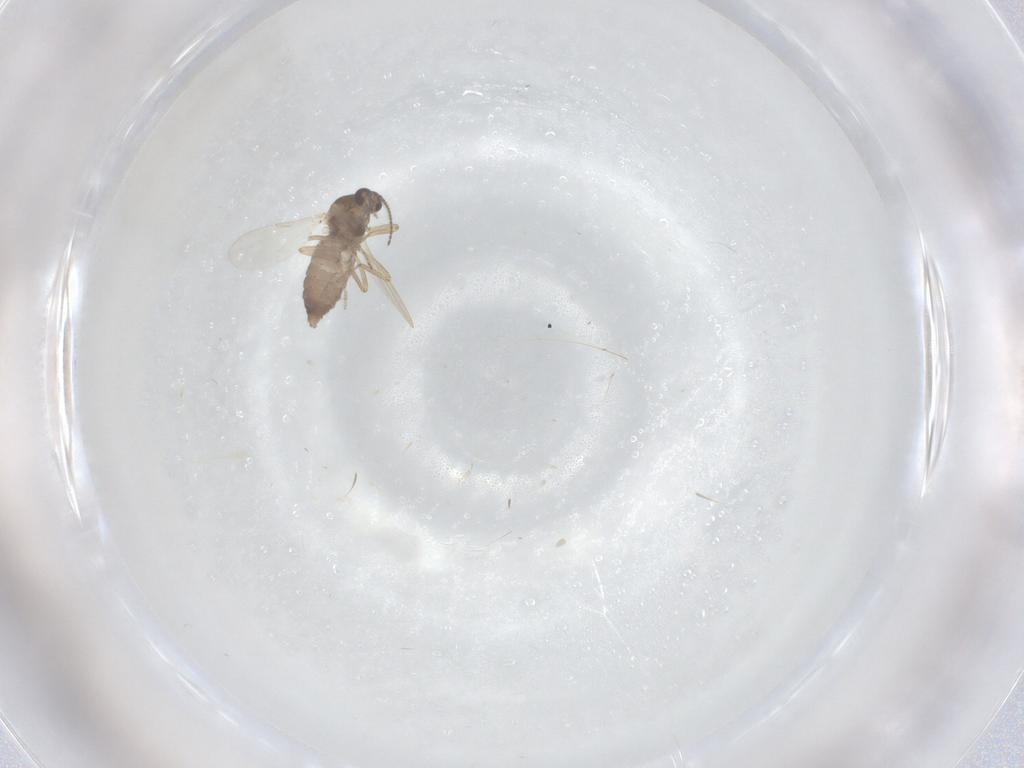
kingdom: Animalia
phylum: Arthropoda
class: Insecta
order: Diptera
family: Ceratopogonidae
